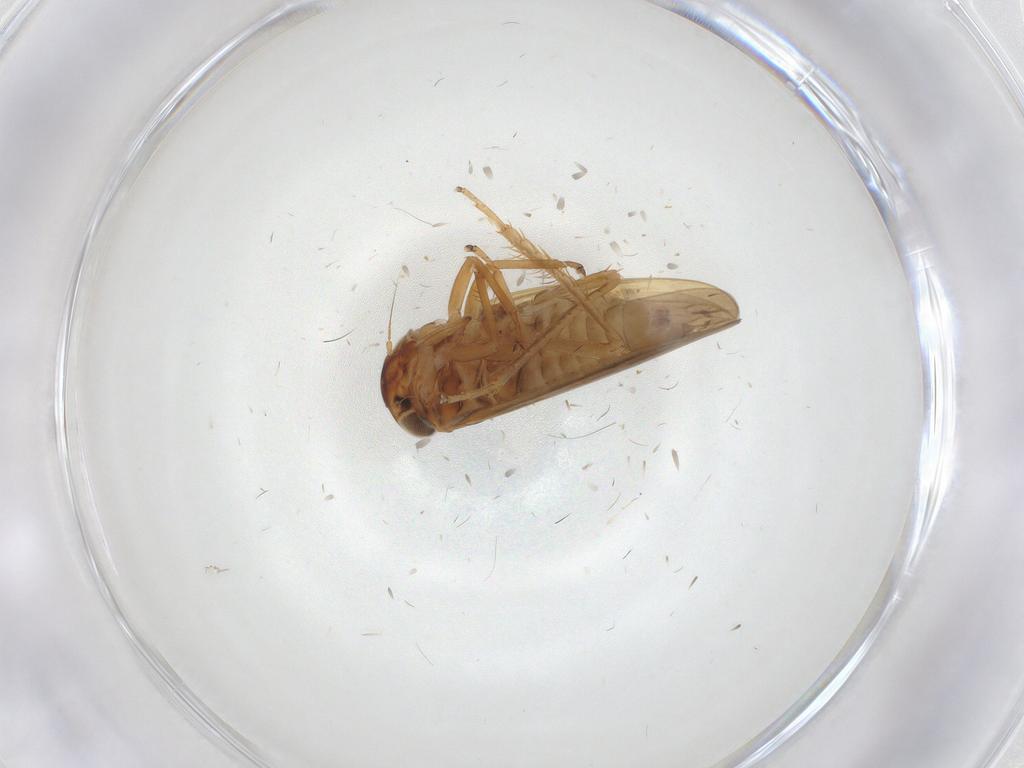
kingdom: Animalia
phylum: Arthropoda
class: Insecta
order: Hemiptera
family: Cicadellidae
